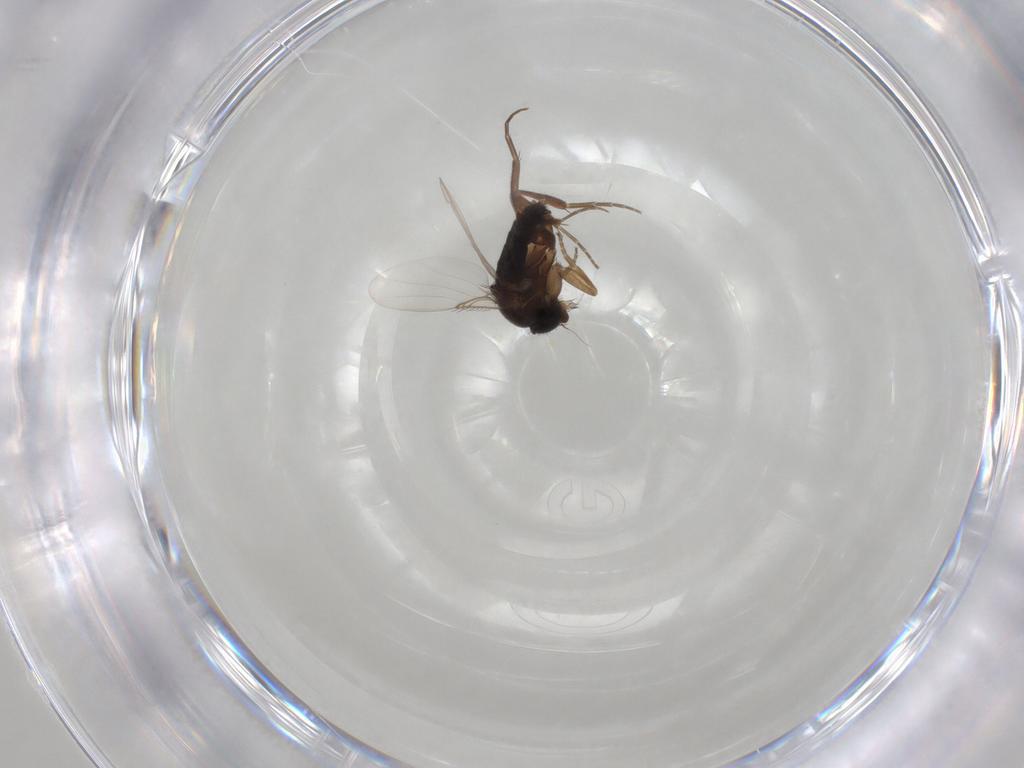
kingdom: Animalia
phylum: Arthropoda
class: Insecta
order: Diptera
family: Phoridae
